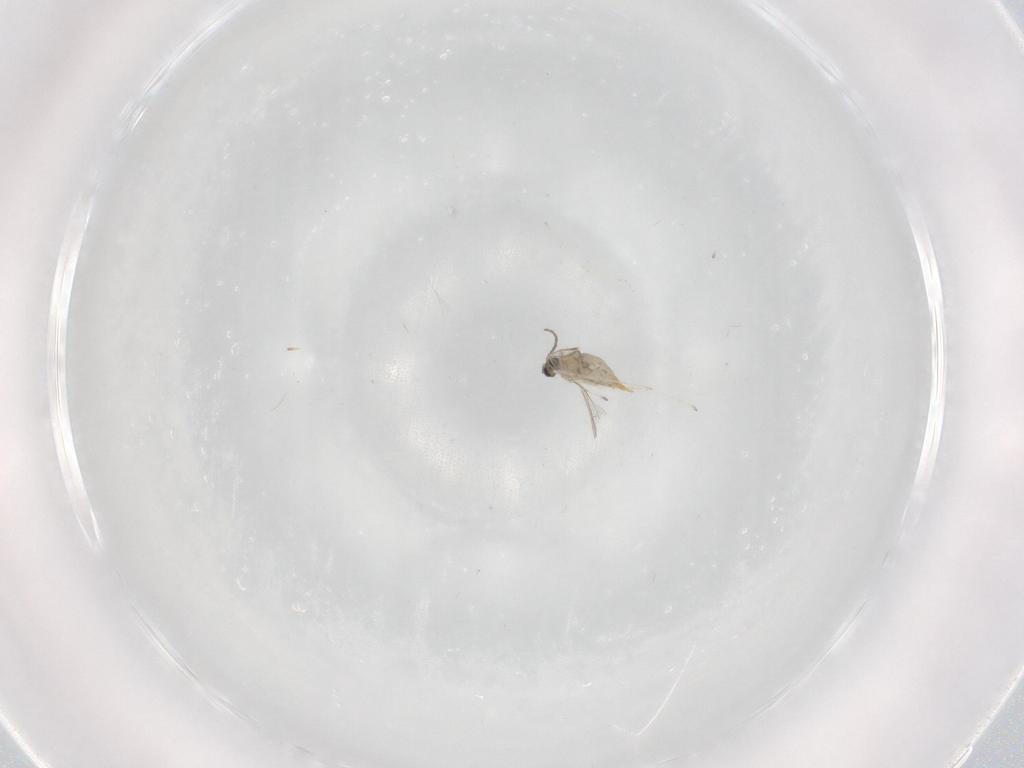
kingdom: Animalia
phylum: Arthropoda
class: Insecta
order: Diptera
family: Cecidomyiidae
